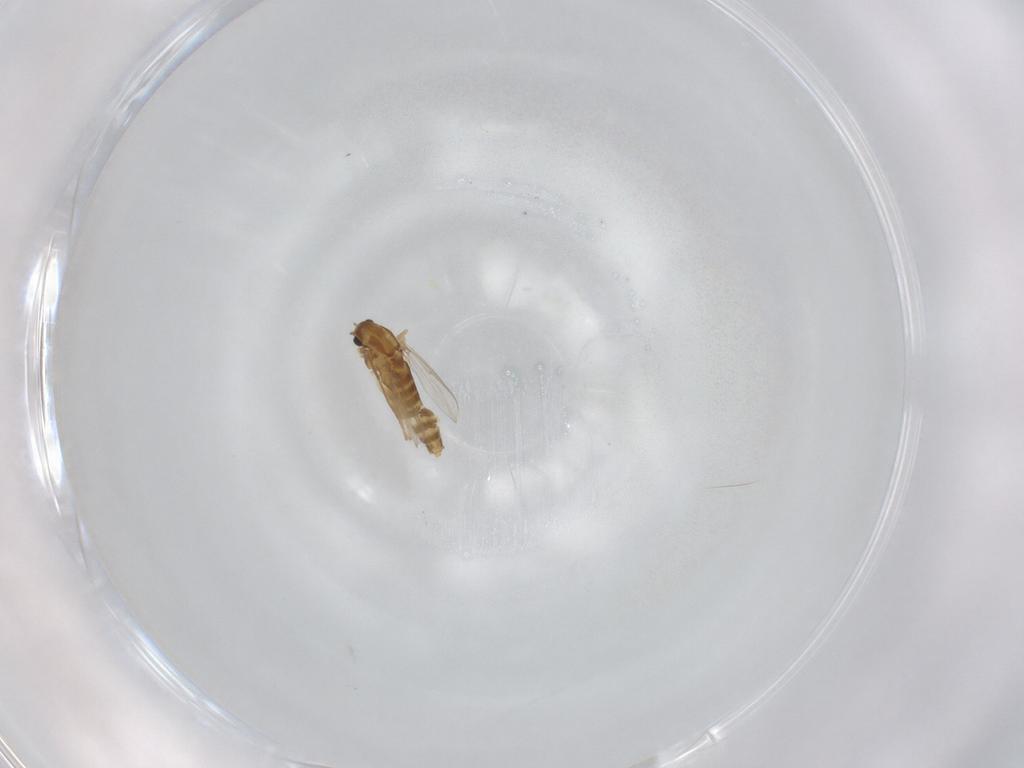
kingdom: Animalia
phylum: Arthropoda
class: Insecta
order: Diptera
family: Chironomidae
